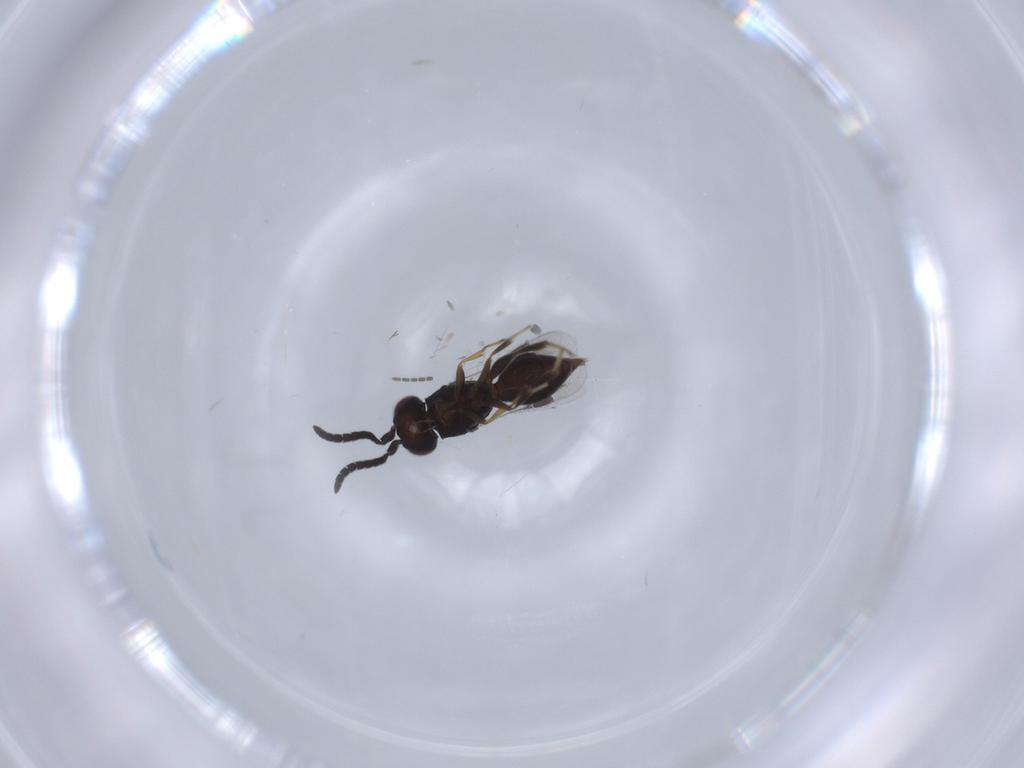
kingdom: Animalia
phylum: Arthropoda
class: Insecta
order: Hymenoptera
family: Megaspilidae
